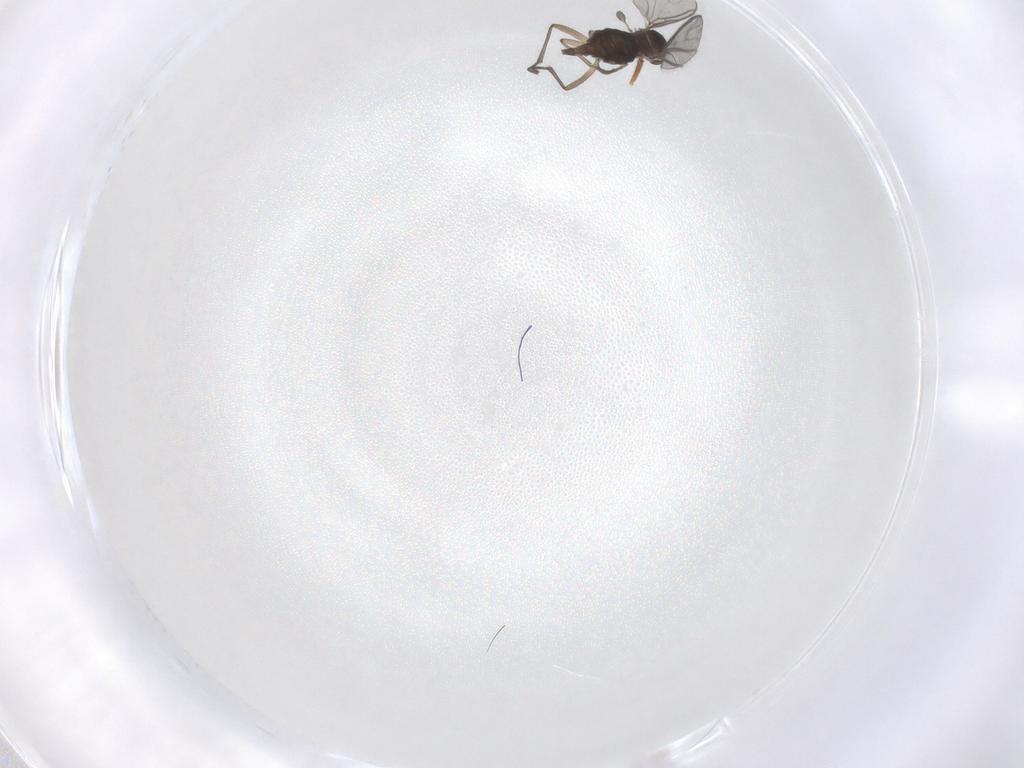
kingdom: Animalia
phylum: Arthropoda
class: Insecta
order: Diptera
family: Sciaridae
